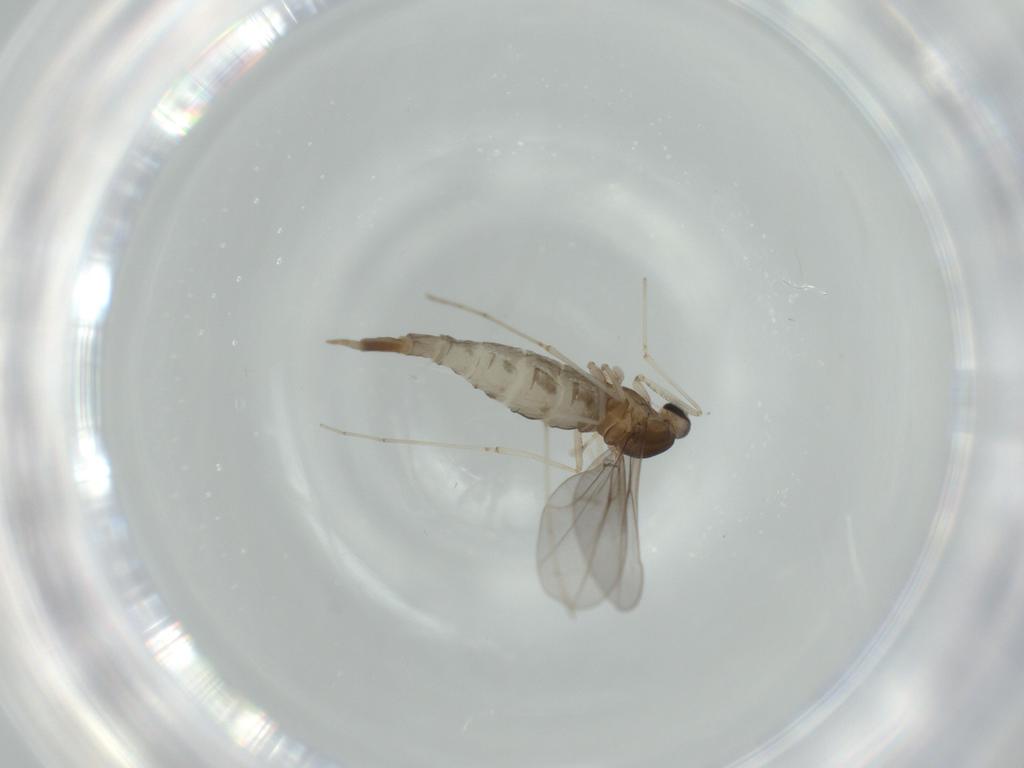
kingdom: Animalia
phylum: Arthropoda
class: Insecta
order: Diptera
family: Cecidomyiidae
